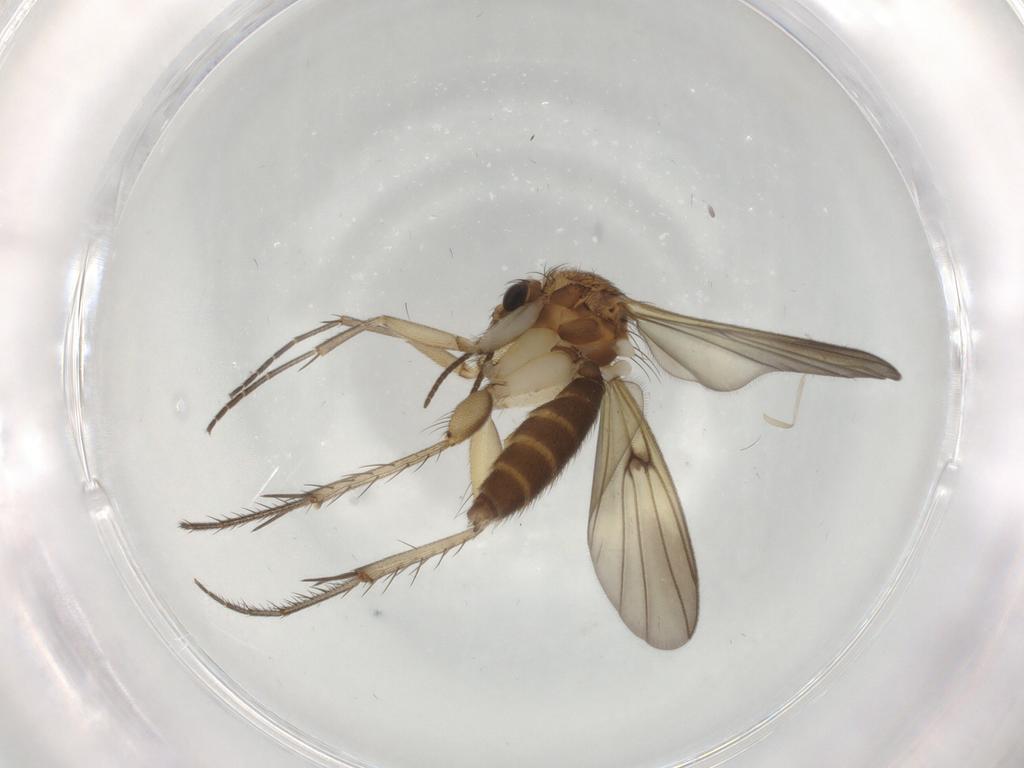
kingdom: Animalia
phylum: Arthropoda
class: Insecta
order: Diptera
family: Mycetophilidae
